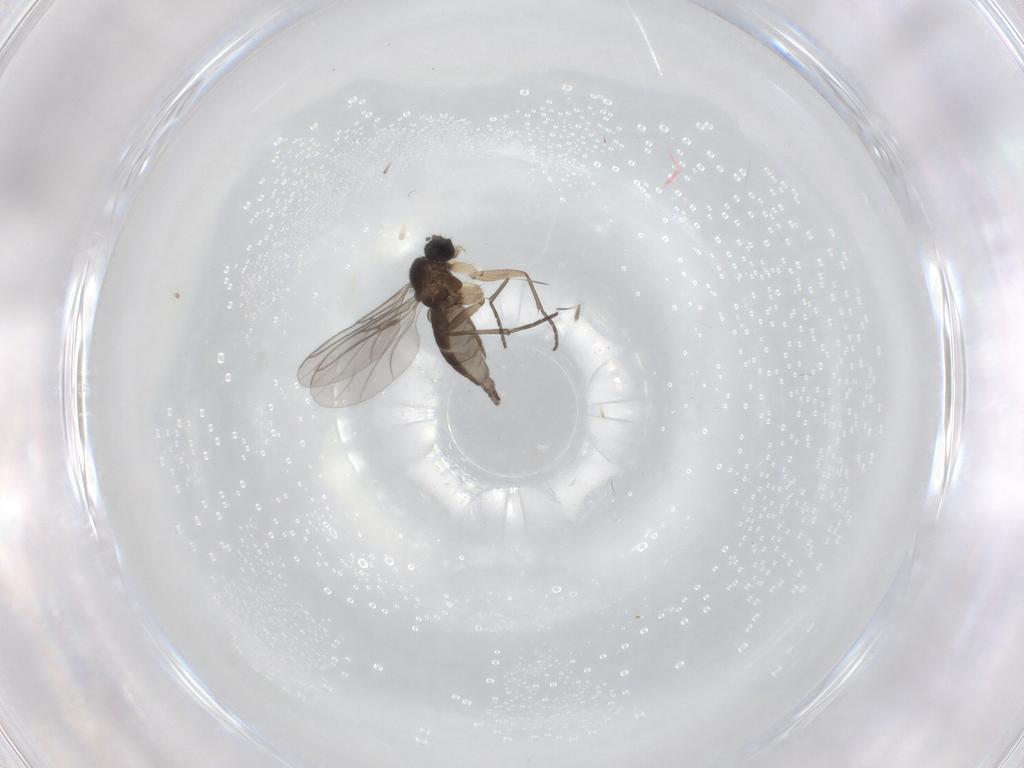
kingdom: Animalia
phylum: Arthropoda
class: Insecta
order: Diptera
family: Sciaridae
